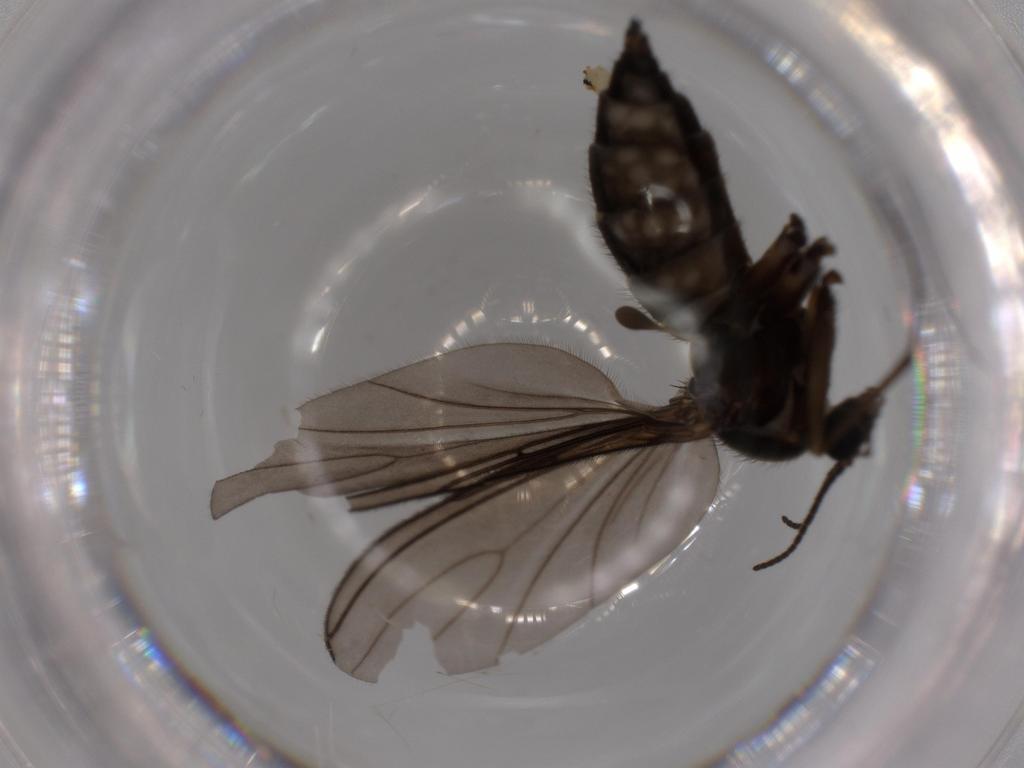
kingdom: Animalia
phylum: Arthropoda
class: Insecta
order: Diptera
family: Sciaridae
